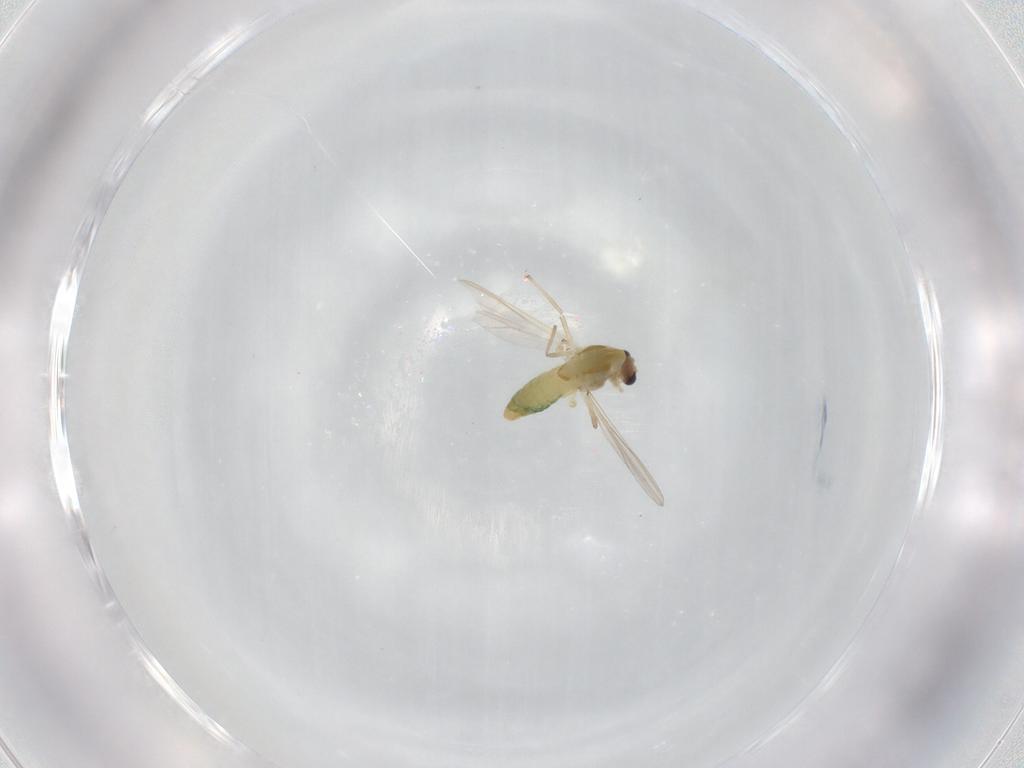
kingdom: Animalia
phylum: Arthropoda
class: Insecta
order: Diptera
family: Chironomidae
